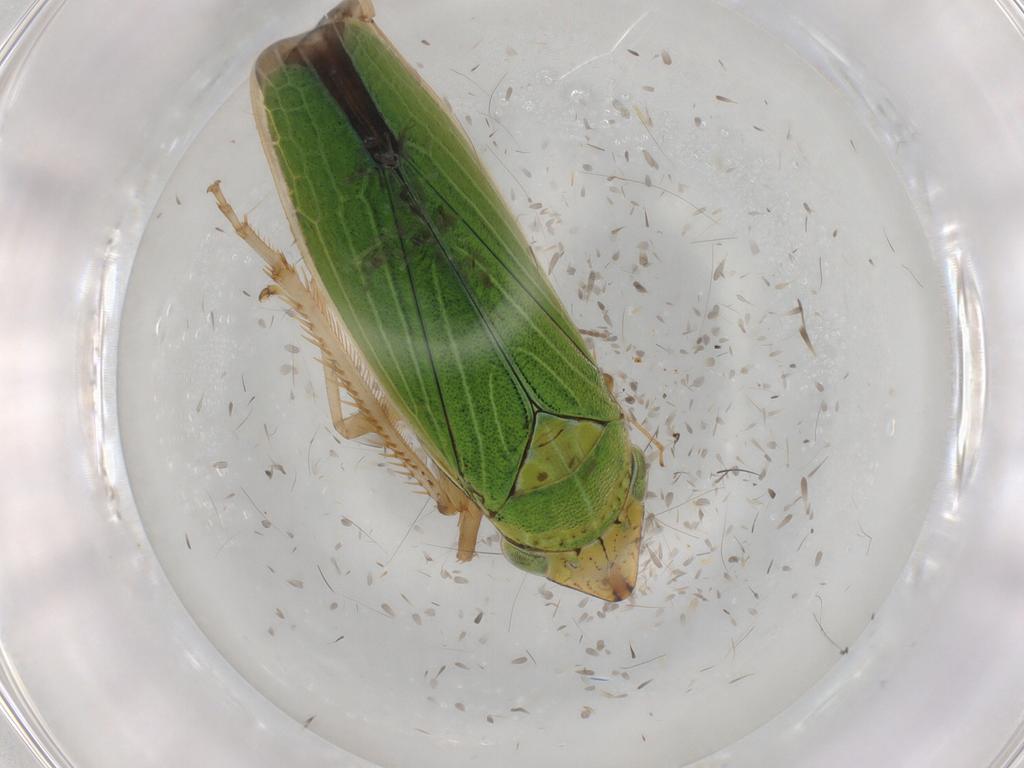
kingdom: Animalia
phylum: Arthropoda
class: Insecta
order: Hemiptera
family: Cicadellidae
